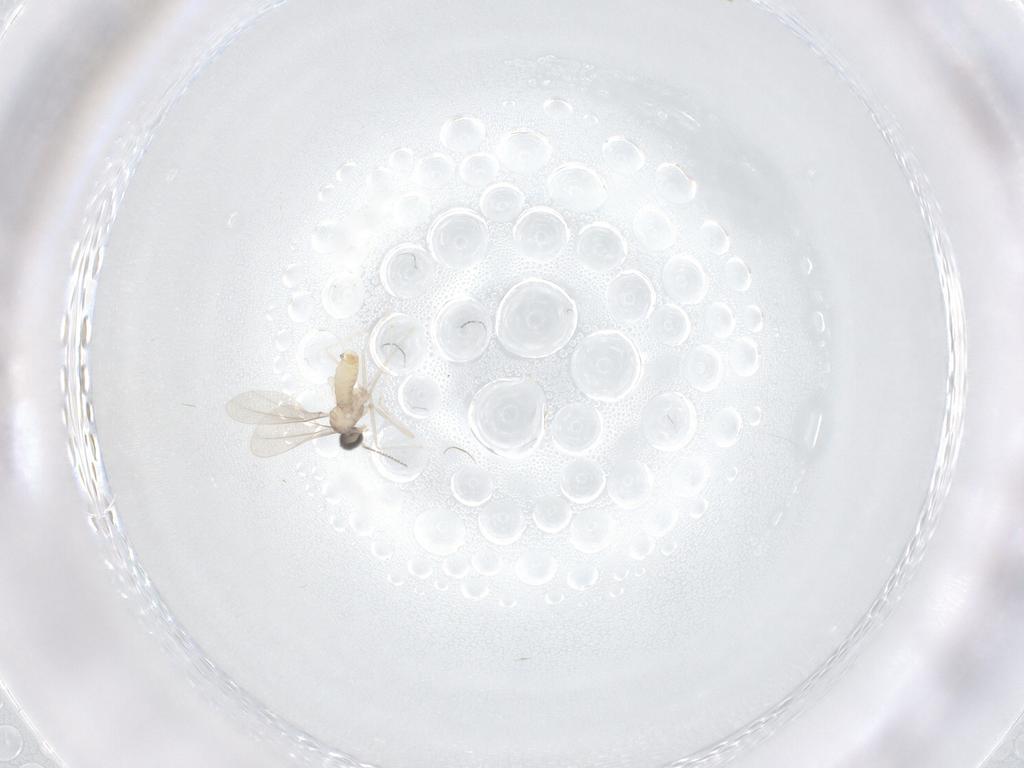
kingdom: Animalia
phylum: Arthropoda
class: Insecta
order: Diptera
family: Cecidomyiidae
